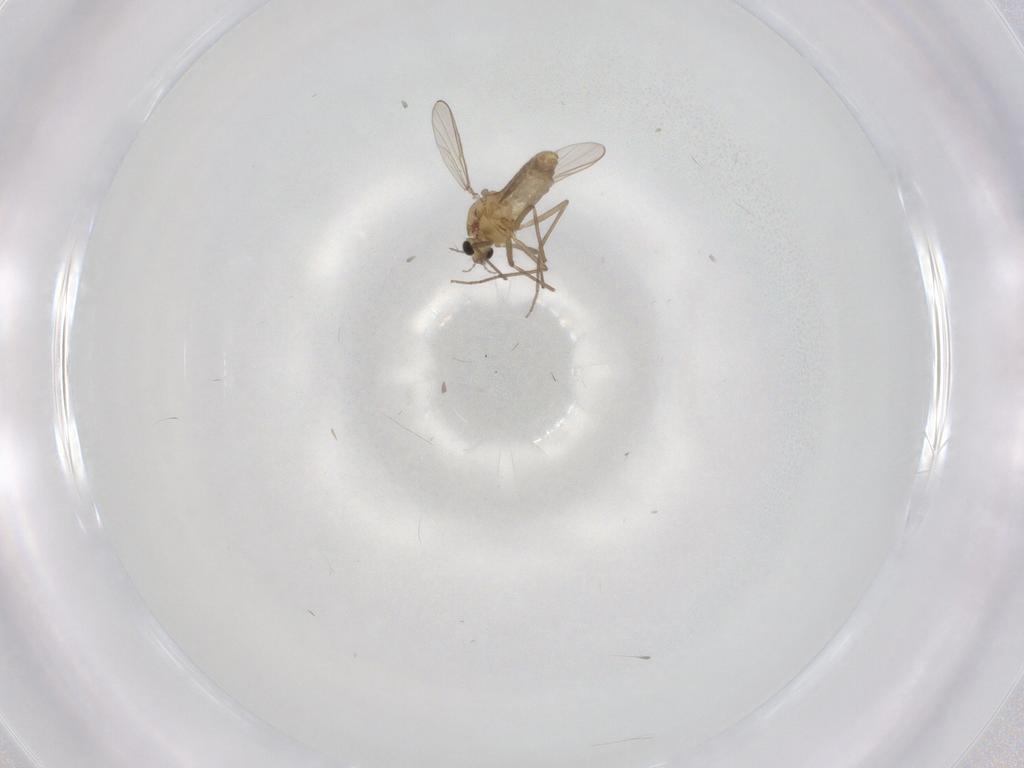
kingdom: Animalia
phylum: Arthropoda
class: Insecta
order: Diptera
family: Chironomidae
